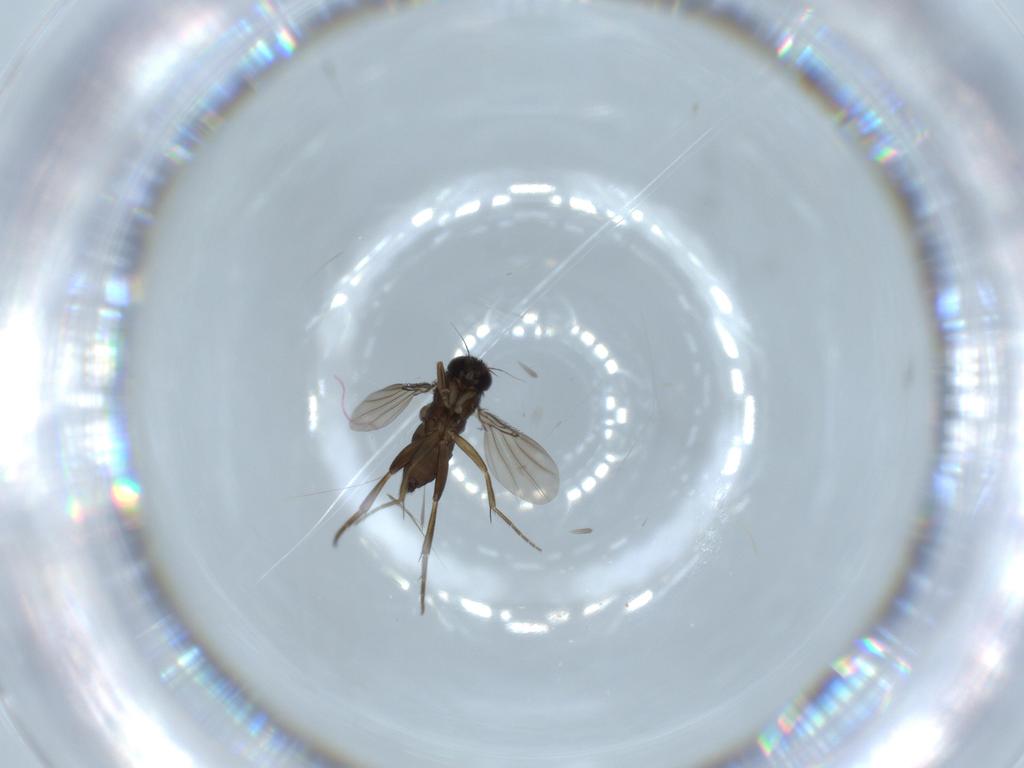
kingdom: Animalia
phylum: Arthropoda
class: Insecta
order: Diptera
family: Phoridae
